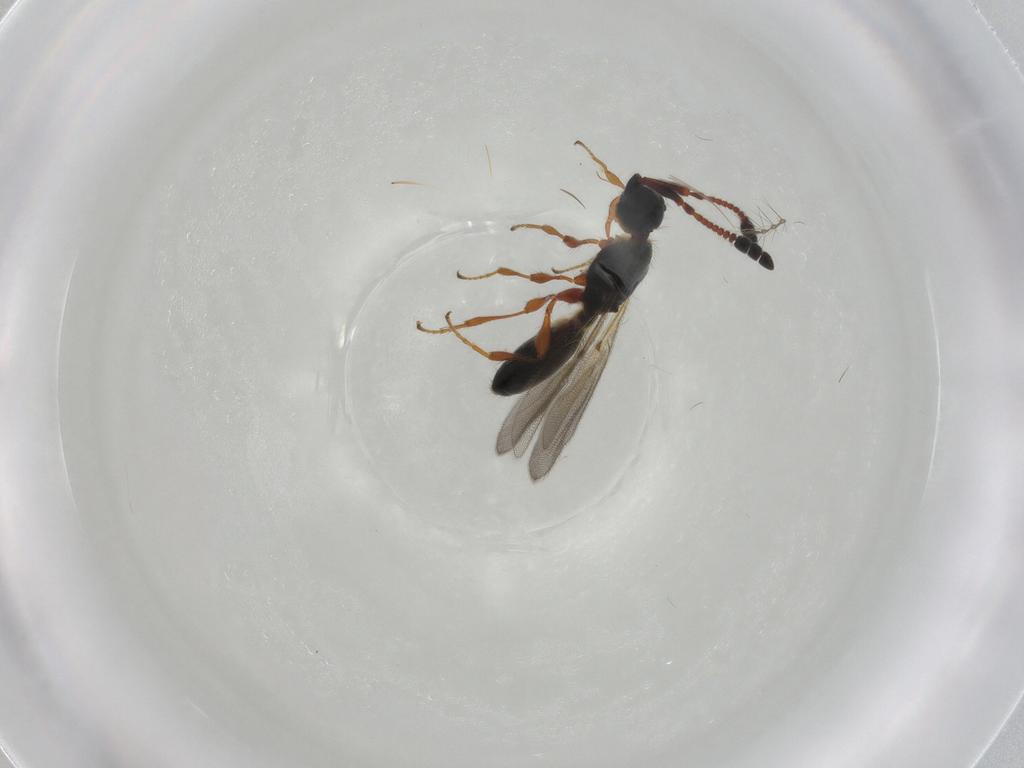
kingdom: Animalia
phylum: Arthropoda
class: Insecta
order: Hymenoptera
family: Diapriidae
